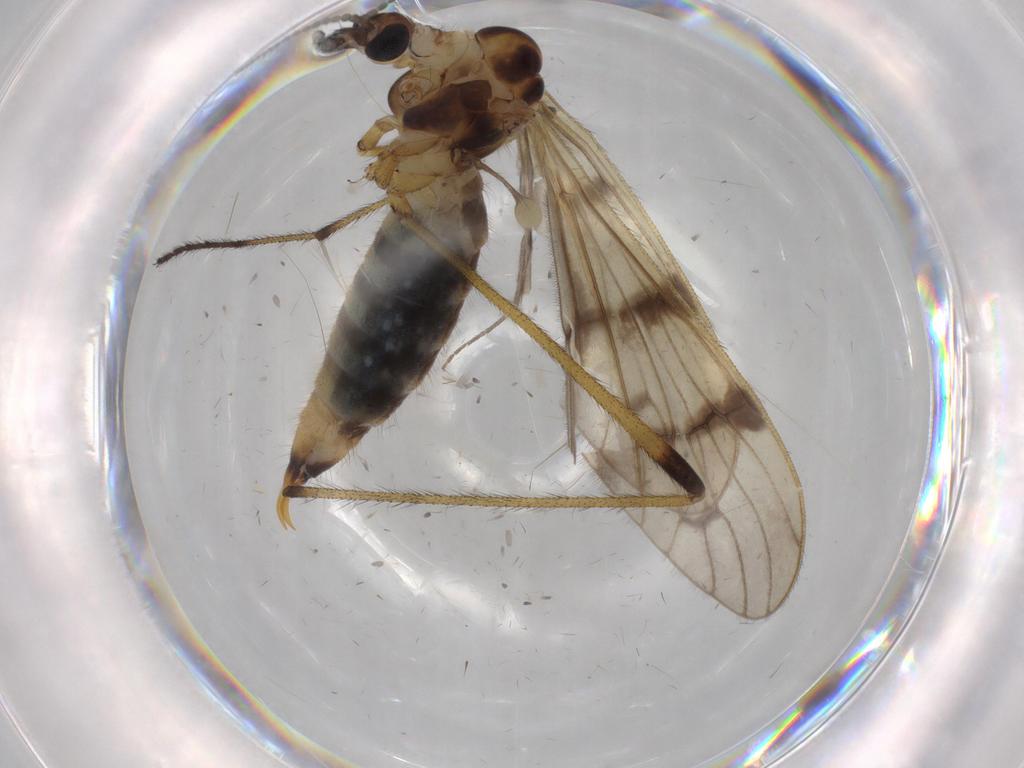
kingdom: Animalia
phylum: Arthropoda
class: Insecta
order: Diptera
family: Limoniidae
